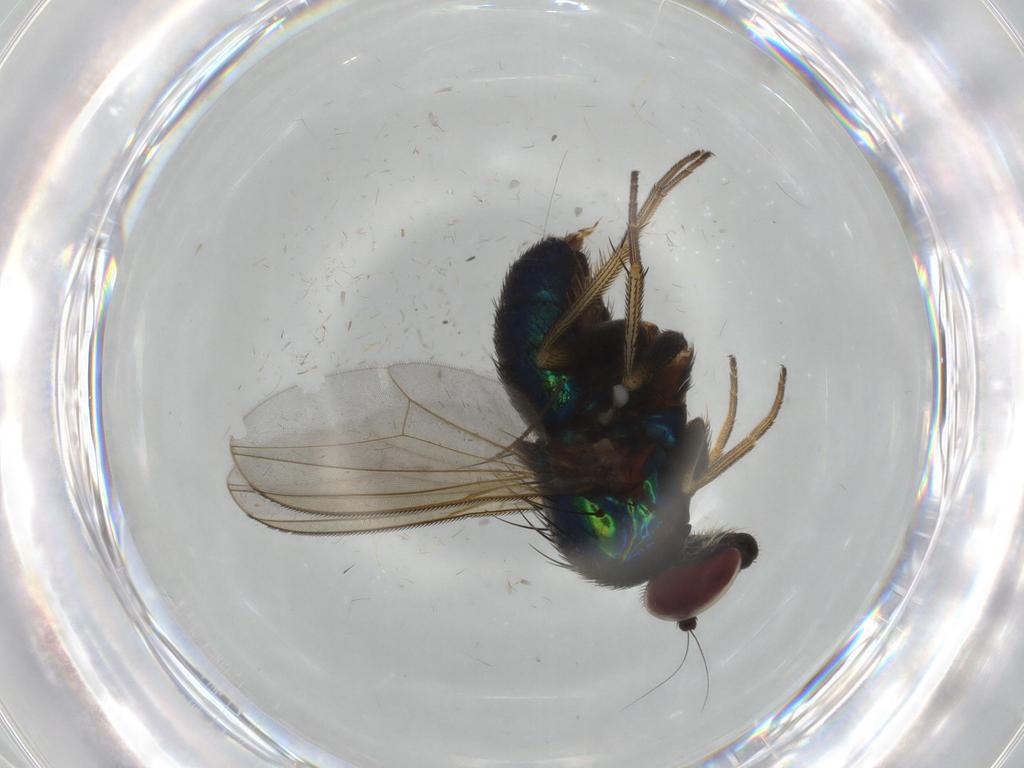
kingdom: Animalia
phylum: Arthropoda
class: Insecta
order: Diptera
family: Dolichopodidae
